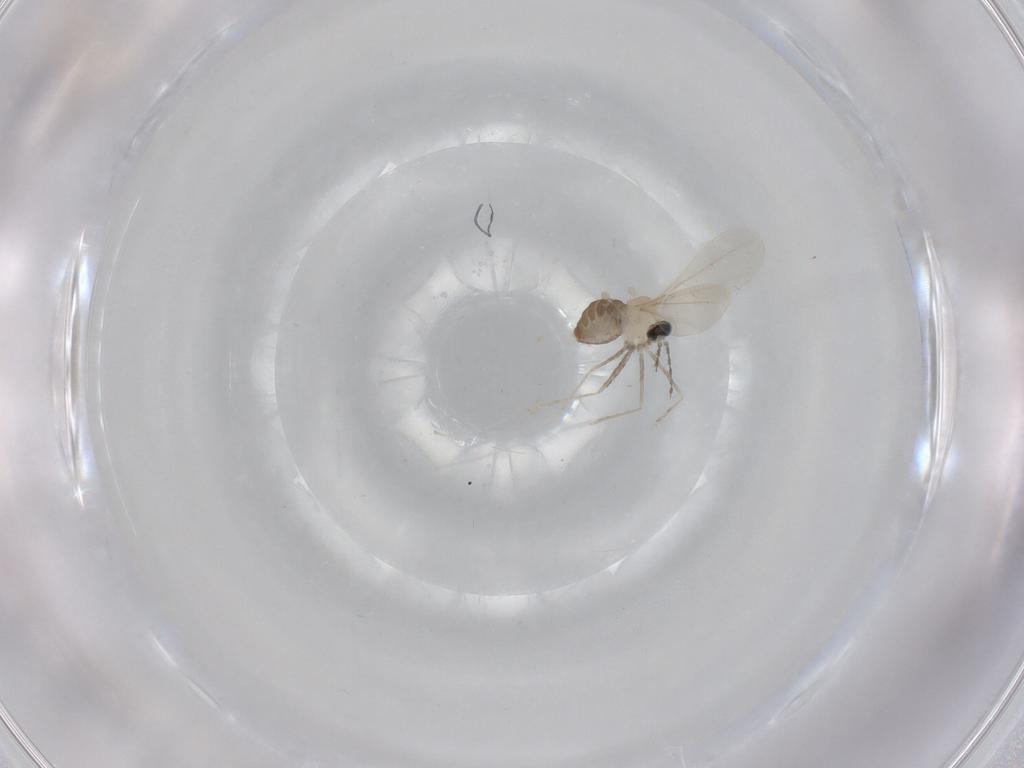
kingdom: Animalia
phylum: Arthropoda
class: Insecta
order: Diptera
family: Cecidomyiidae
